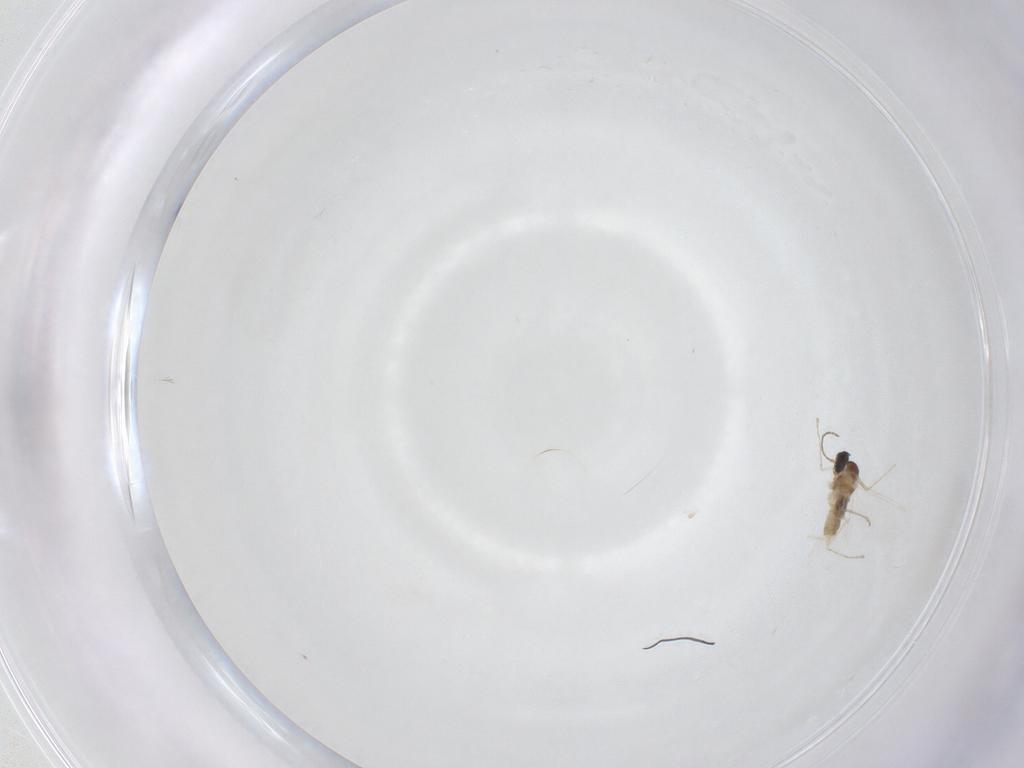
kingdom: Animalia
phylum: Arthropoda
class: Insecta
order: Diptera
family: Cecidomyiidae
